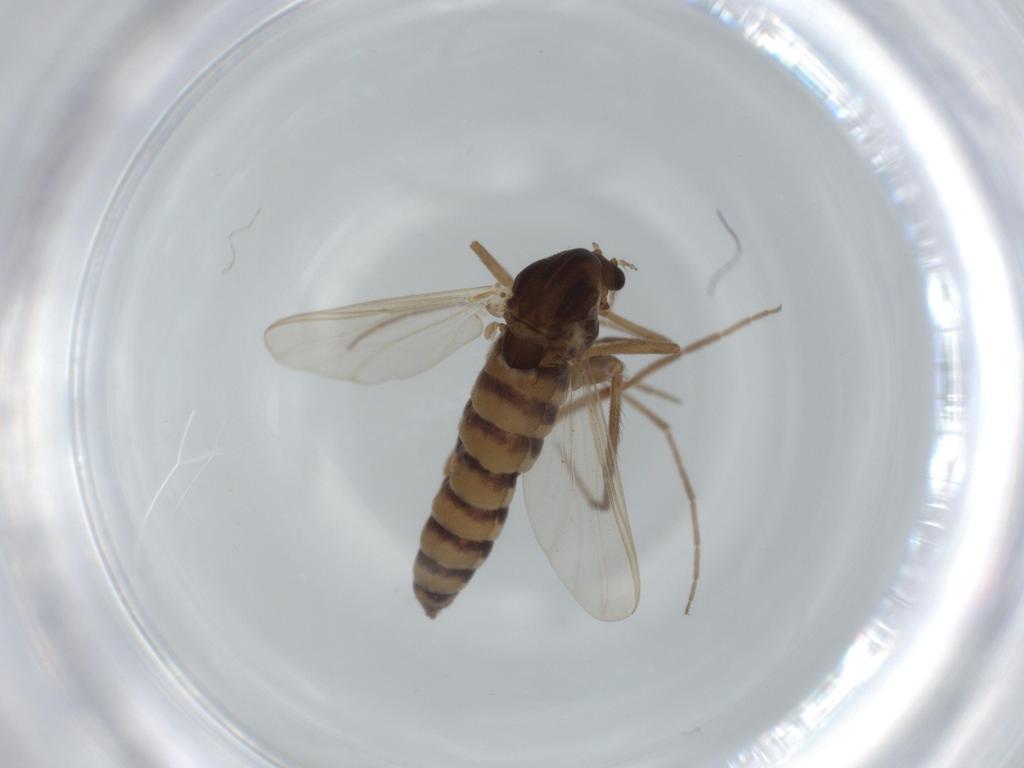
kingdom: Animalia
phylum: Arthropoda
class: Insecta
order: Diptera
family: Chironomidae
